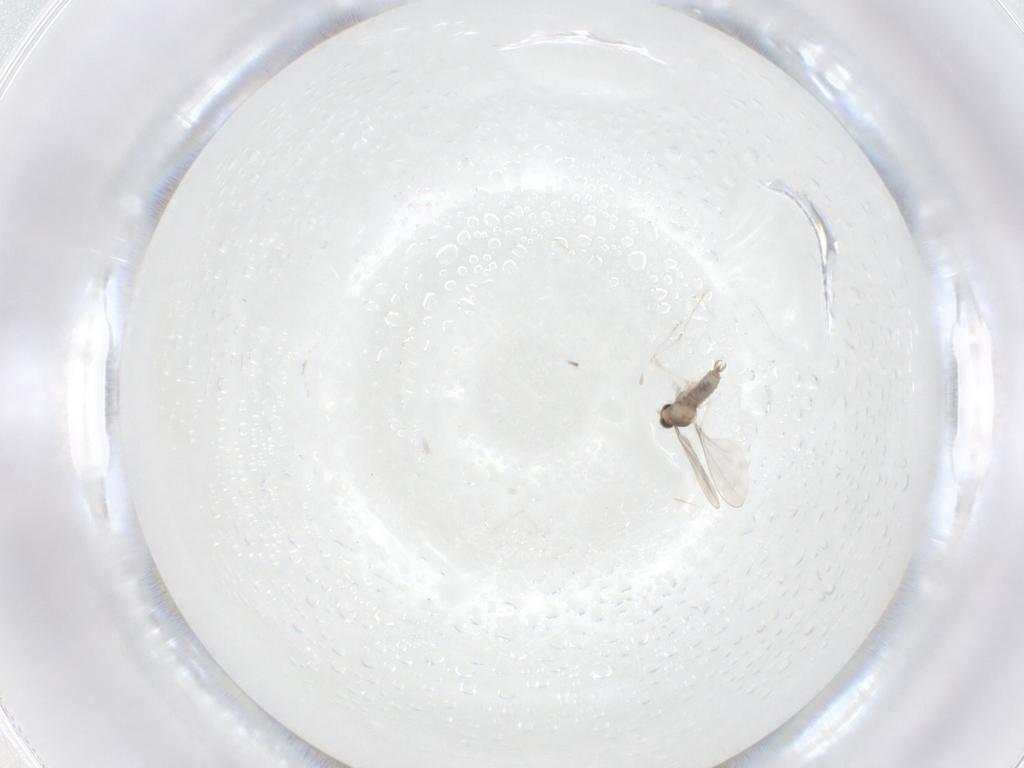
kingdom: Animalia
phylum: Arthropoda
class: Insecta
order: Diptera
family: Cecidomyiidae
